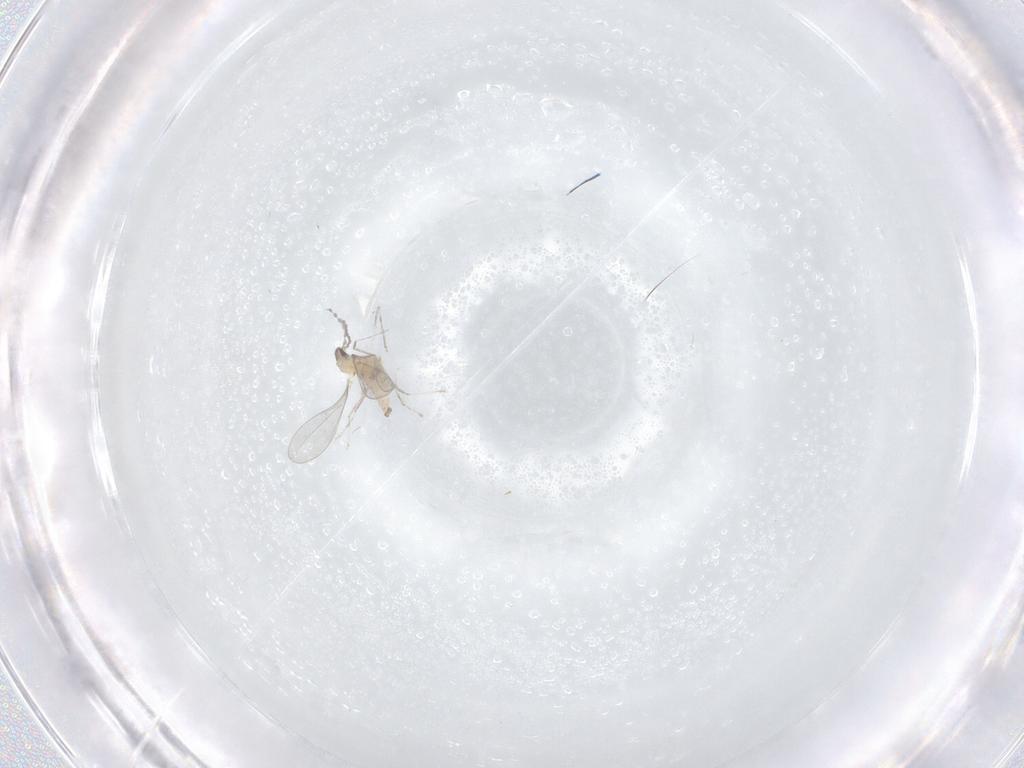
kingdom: Animalia
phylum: Arthropoda
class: Insecta
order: Diptera
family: Cecidomyiidae
